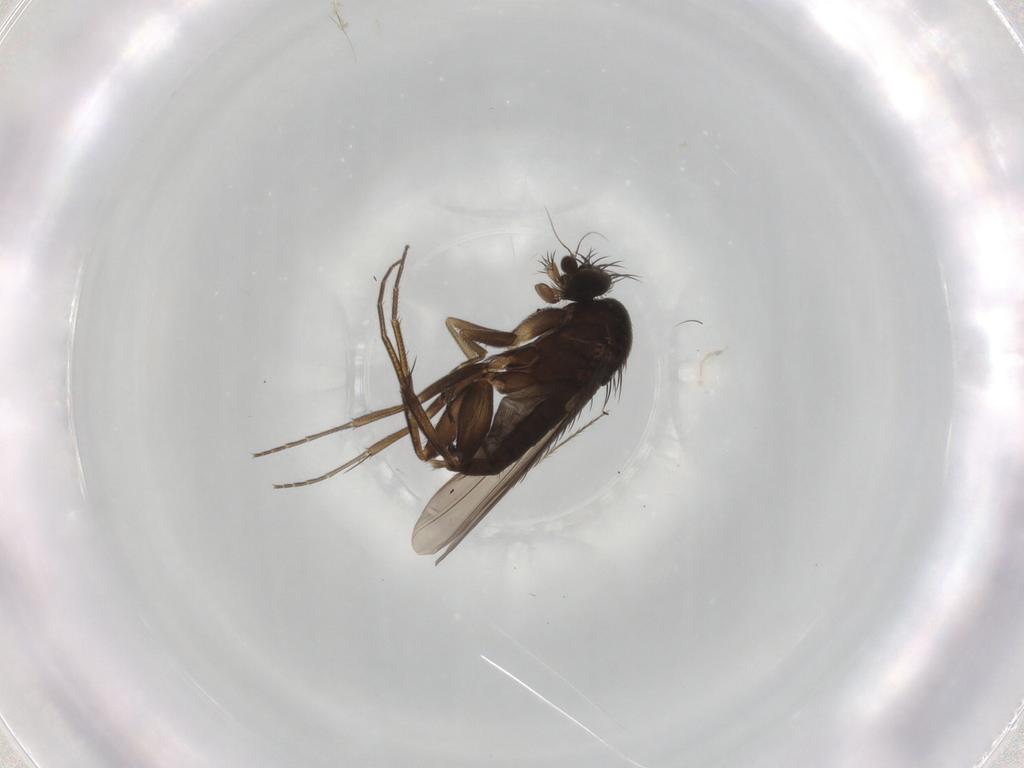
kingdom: Animalia
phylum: Arthropoda
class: Insecta
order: Diptera
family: Phoridae
